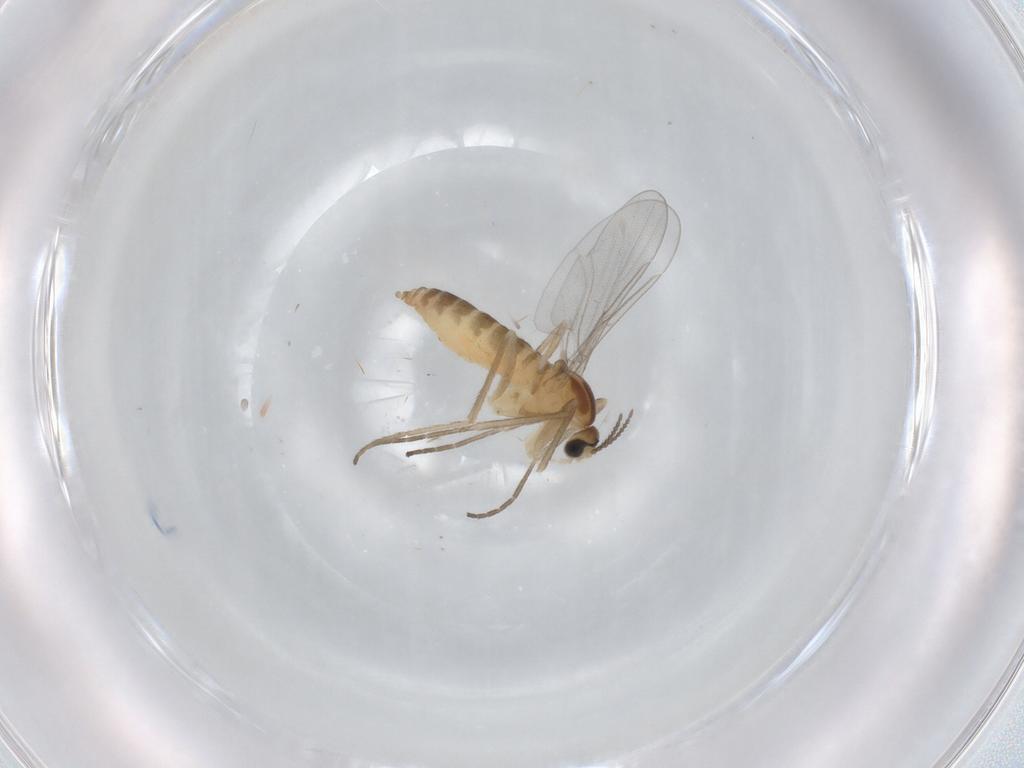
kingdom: Animalia
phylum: Arthropoda
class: Insecta
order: Diptera
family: Cecidomyiidae
